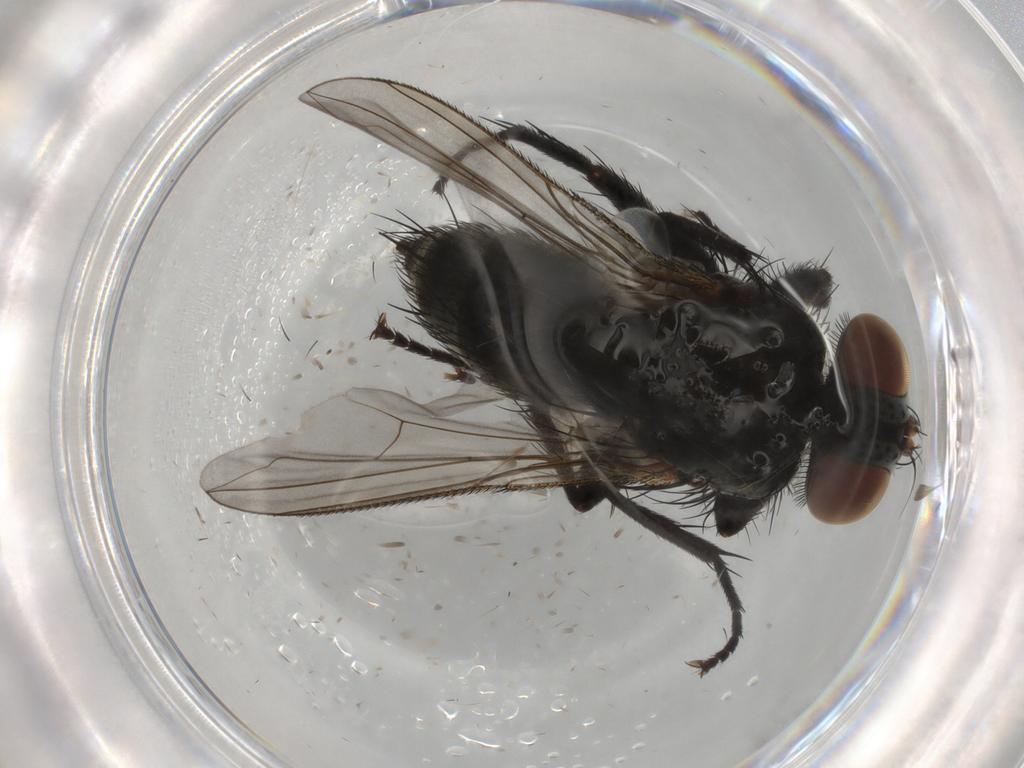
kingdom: Animalia
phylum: Arthropoda
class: Insecta
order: Diptera
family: Tachinidae
